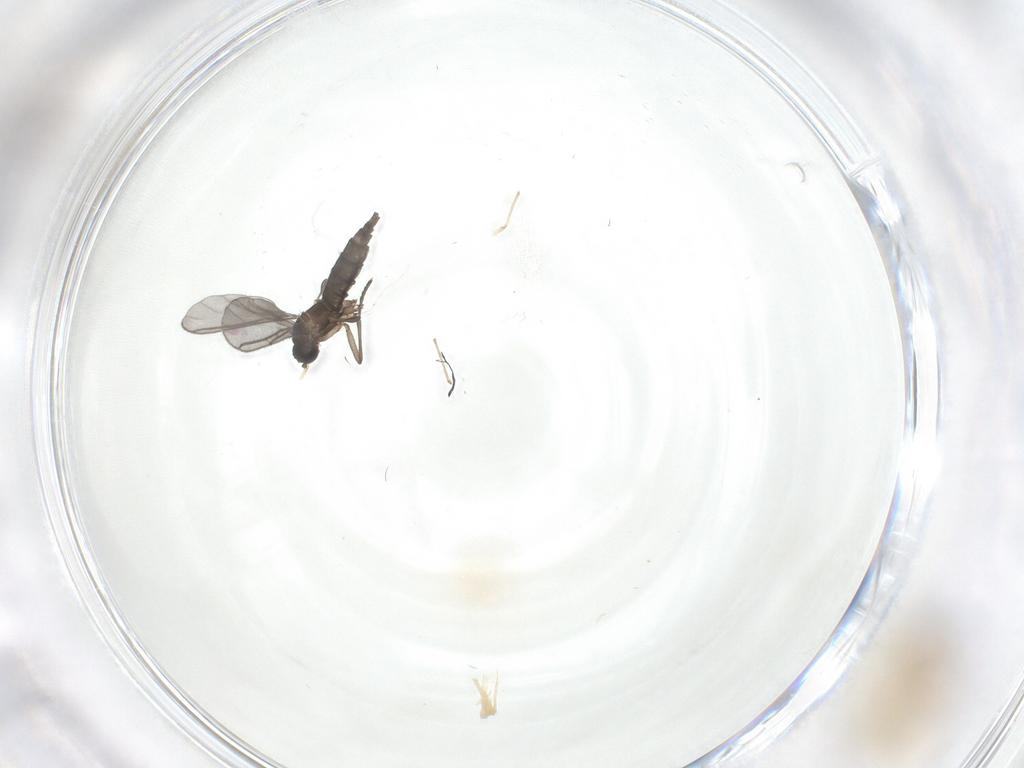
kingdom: Animalia
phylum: Arthropoda
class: Insecta
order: Diptera
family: Sciaridae
